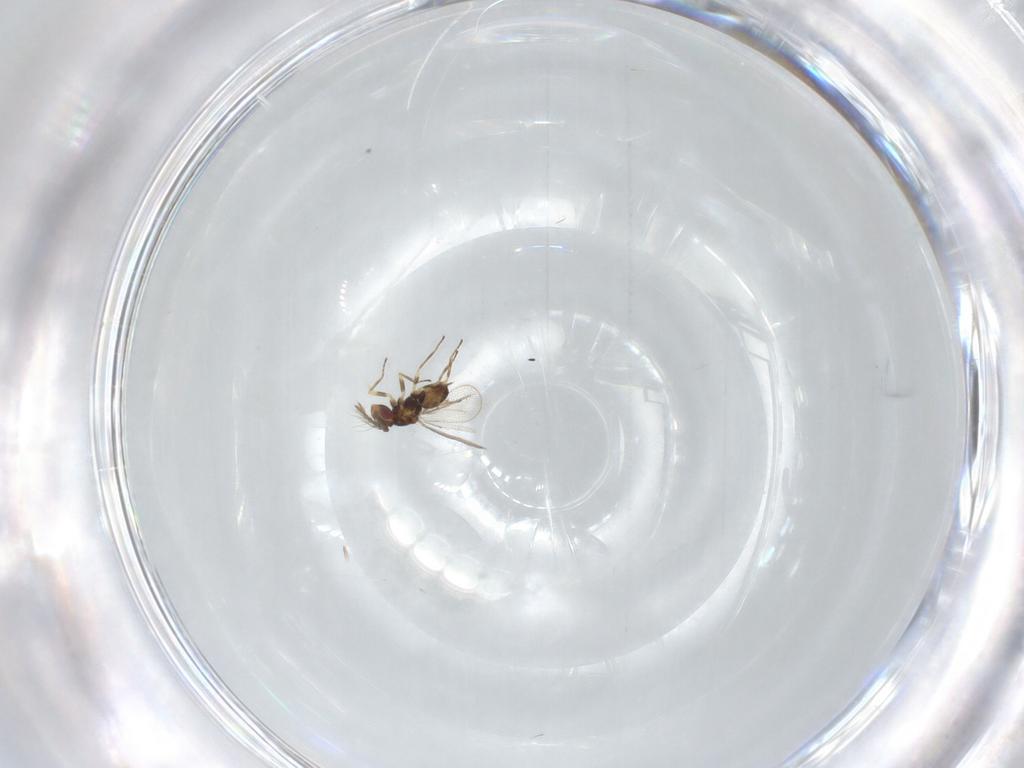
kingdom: Animalia
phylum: Arthropoda
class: Insecta
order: Hymenoptera
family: Eulophidae
